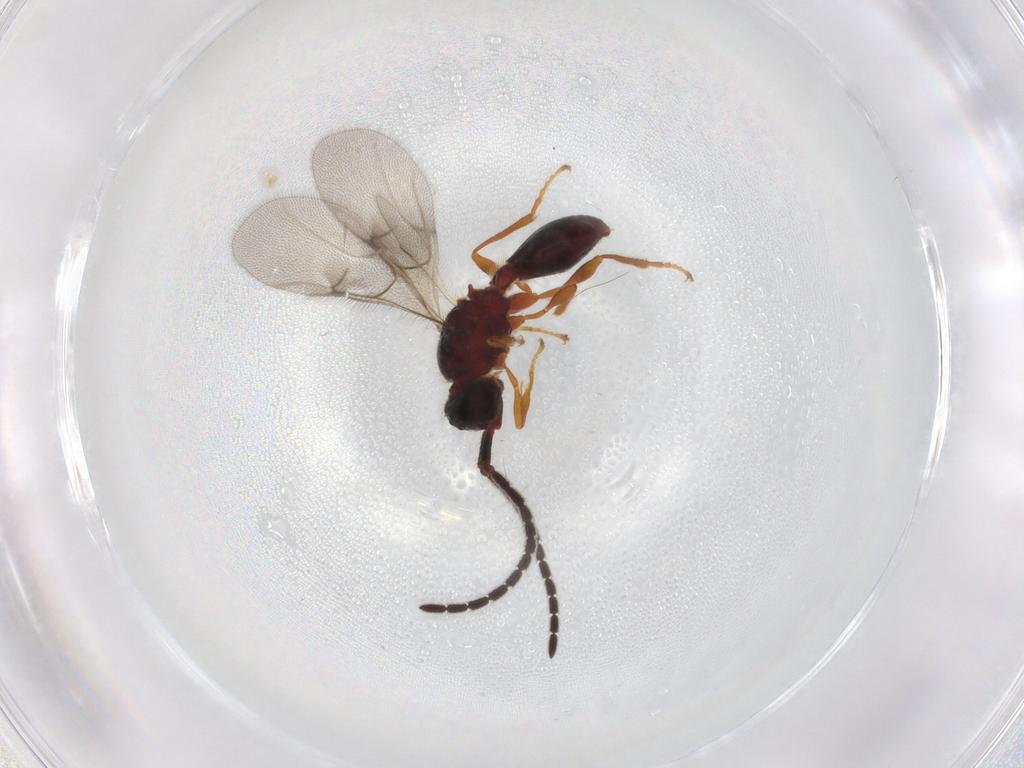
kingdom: Animalia
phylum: Arthropoda
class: Insecta
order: Hymenoptera
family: Diapriidae
